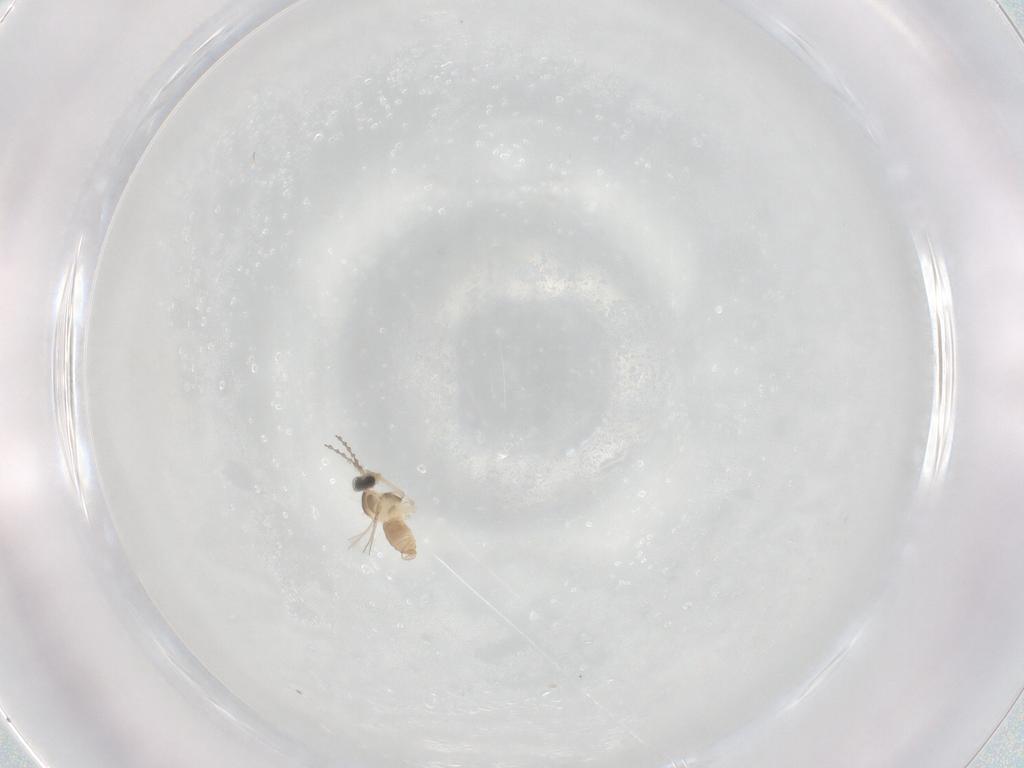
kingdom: Animalia
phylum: Arthropoda
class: Insecta
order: Diptera
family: Cecidomyiidae
